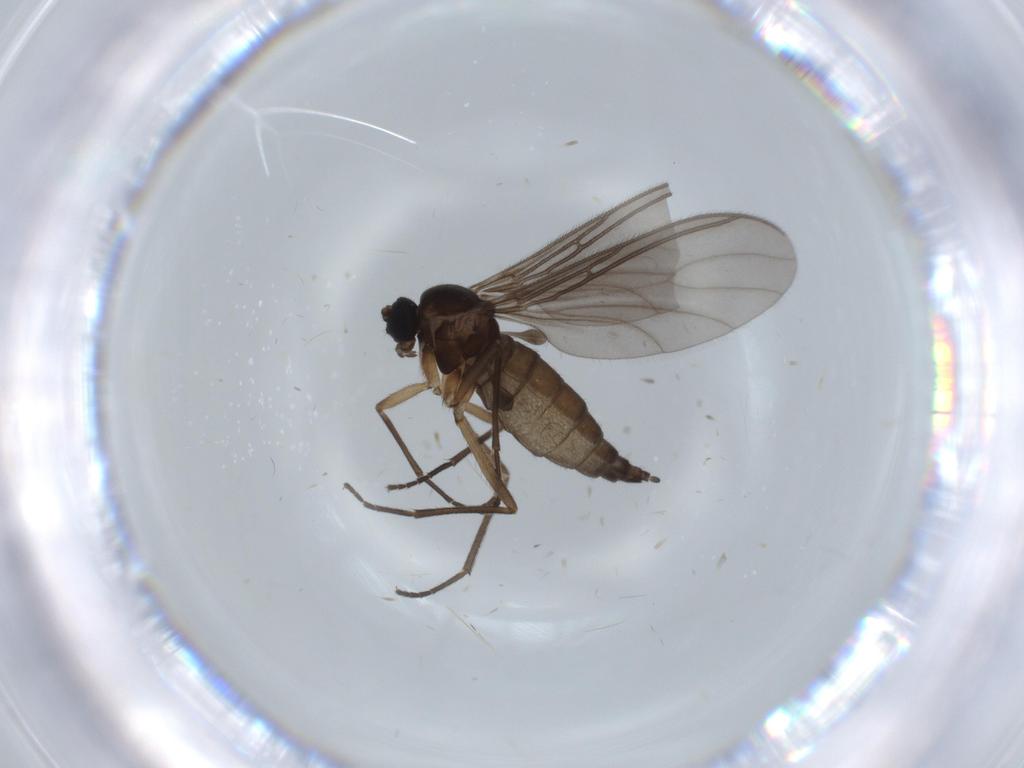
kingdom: Animalia
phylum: Arthropoda
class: Insecta
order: Diptera
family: Sciaridae
